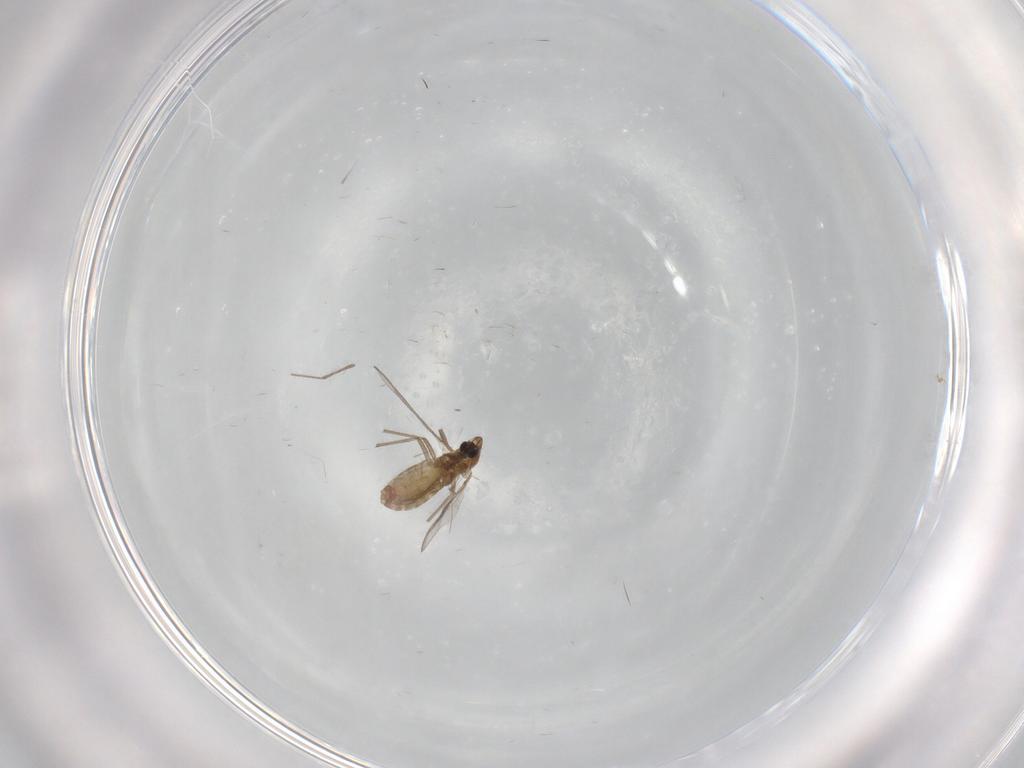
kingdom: Animalia
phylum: Arthropoda
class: Insecta
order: Diptera
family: Chironomidae
